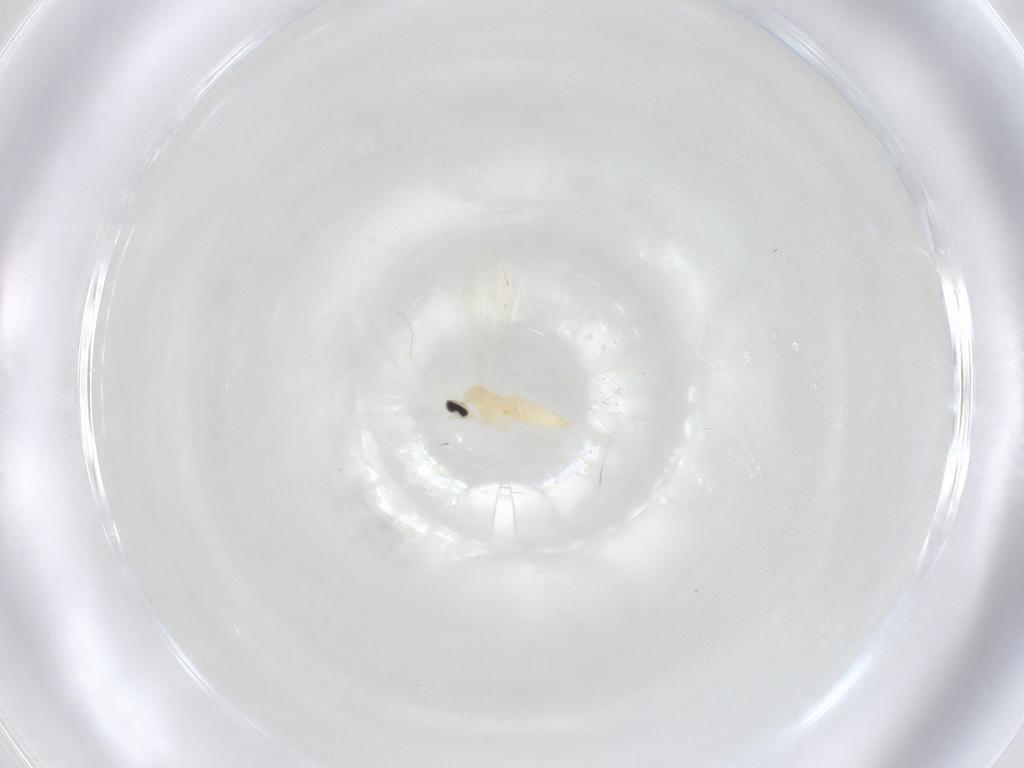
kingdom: Animalia
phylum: Arthropoda
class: Insecta
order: Diptera
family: Cecidomyiidae
